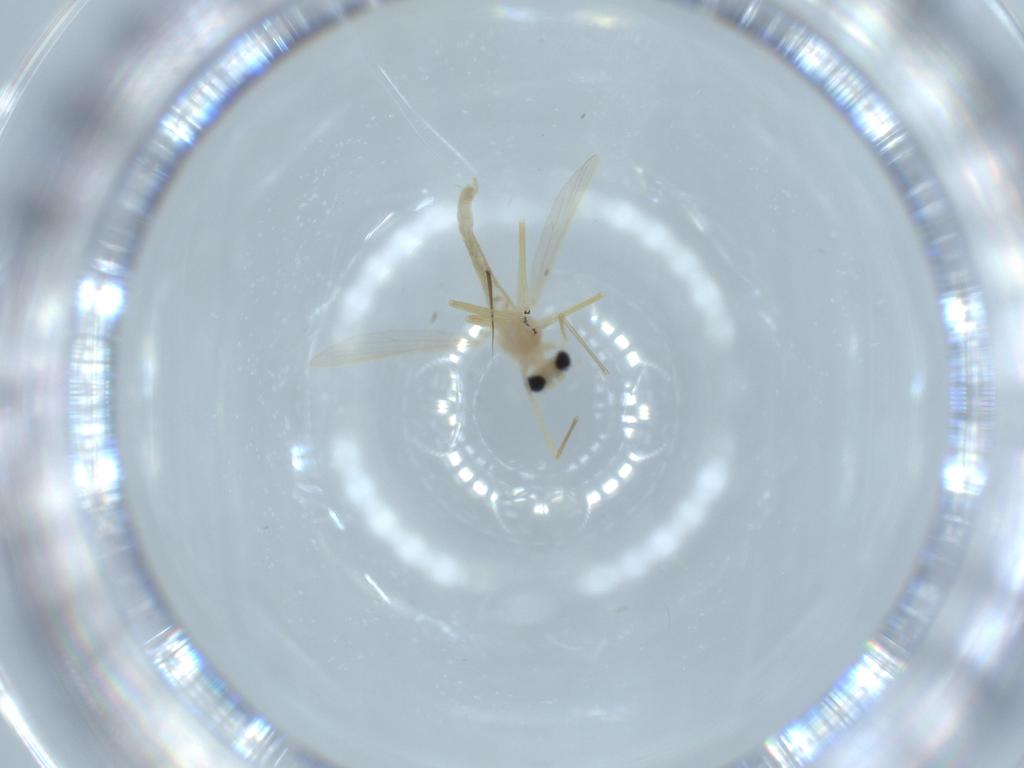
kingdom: Animalia
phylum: Arthropoda
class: Insecta
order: Diptera
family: Chironomidae
